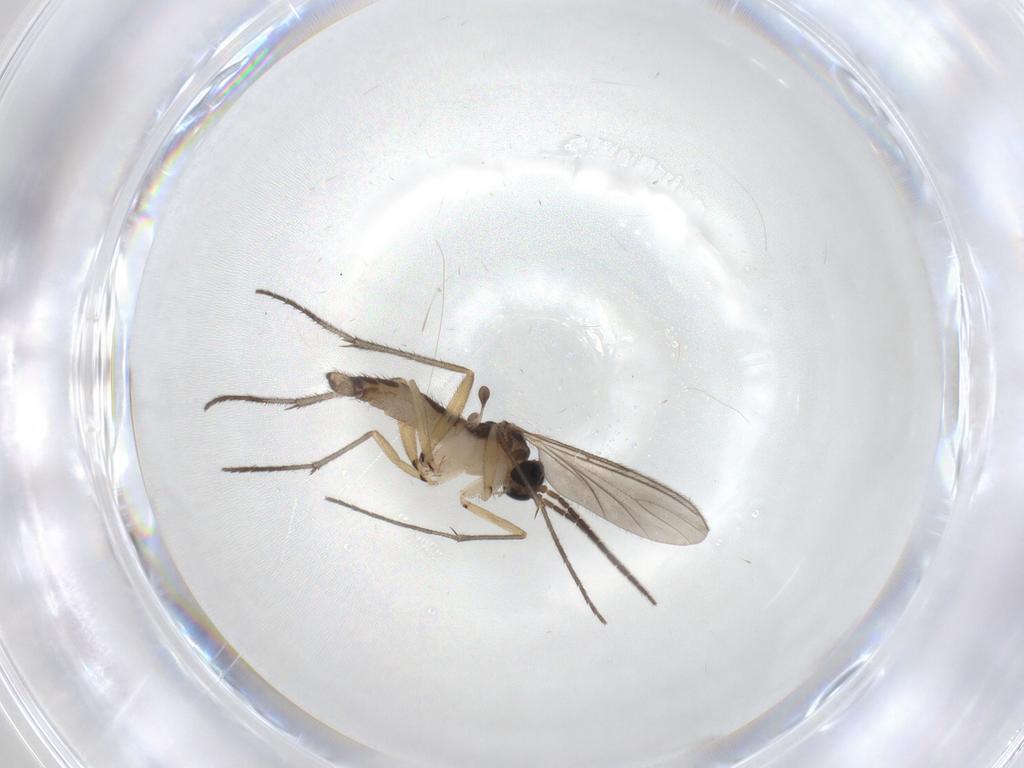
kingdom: Animalia
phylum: Arthropoda
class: Insecta
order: Diptera
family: Sciaridae
